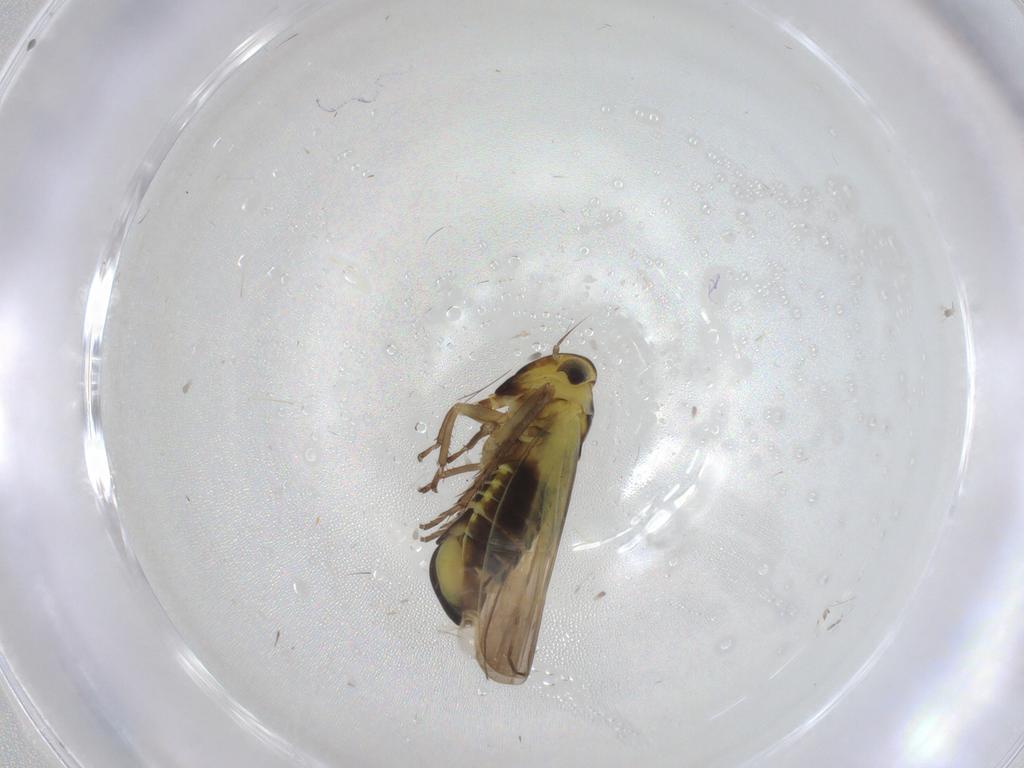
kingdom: Animalia
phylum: Arthropoda
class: Insecta
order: Hemiptera
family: Cicadellidae
